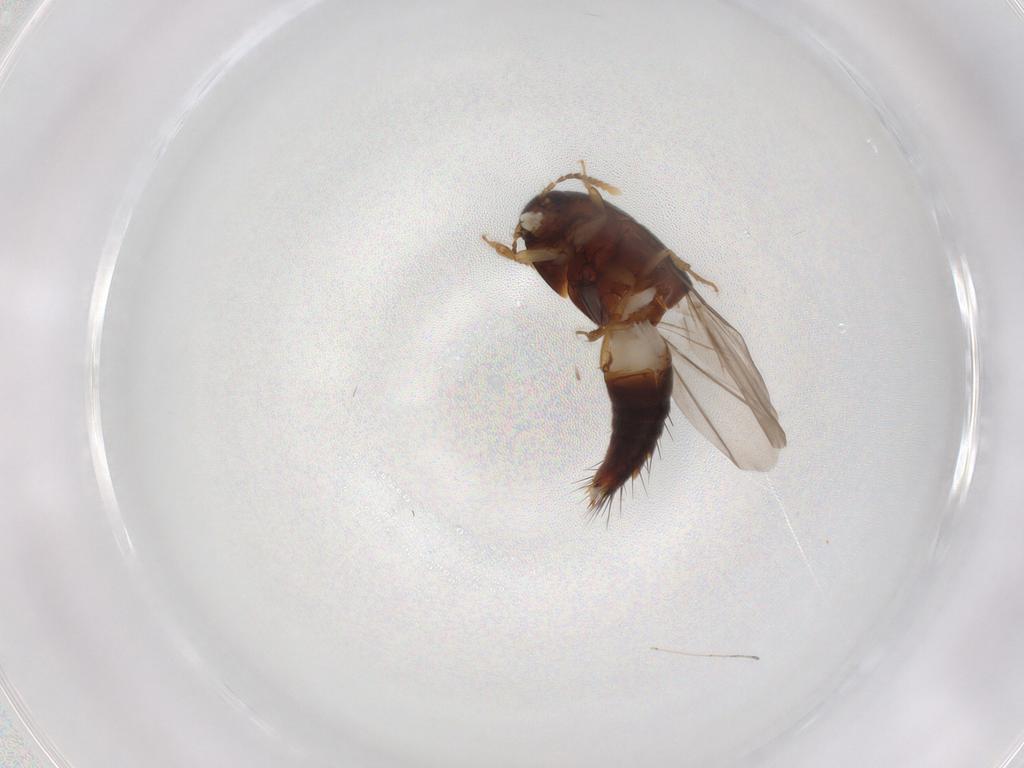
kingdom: Animalia
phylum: Arthropoda
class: Insecta
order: Coleoptera
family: Staphylinidae
